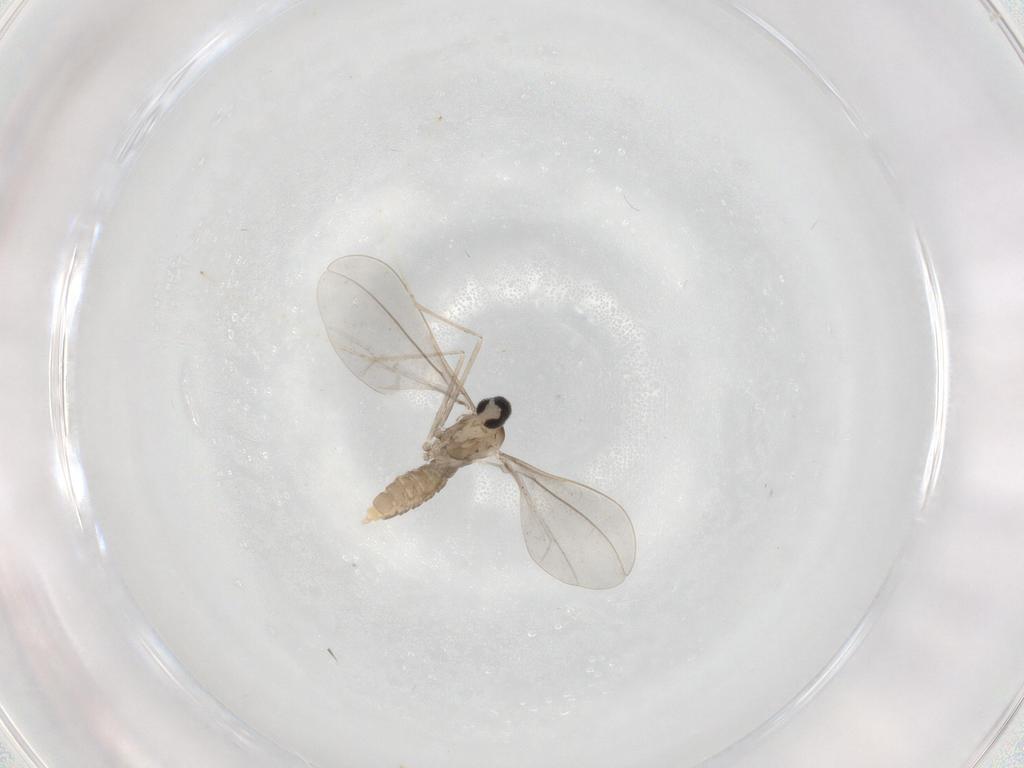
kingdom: Animalia
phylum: Arthropoda
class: Insecta
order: Diptera
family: Cecidomyiidae
